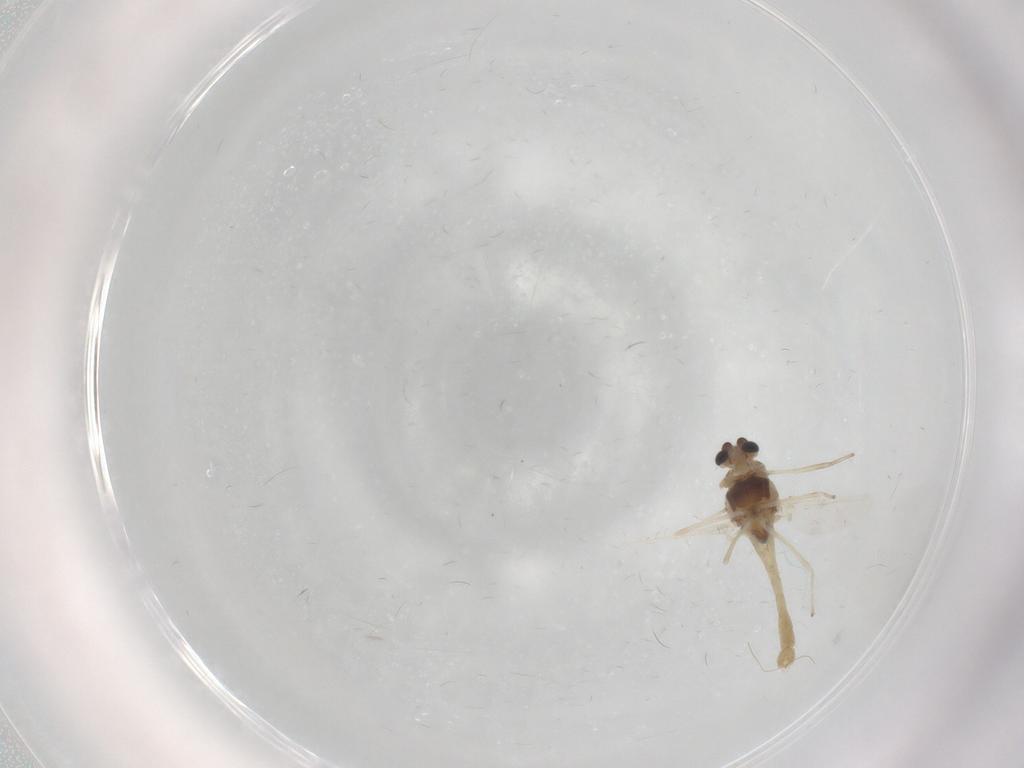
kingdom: Animalia
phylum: Arthropoda
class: Insecta
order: Diptera
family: Chironomidae
